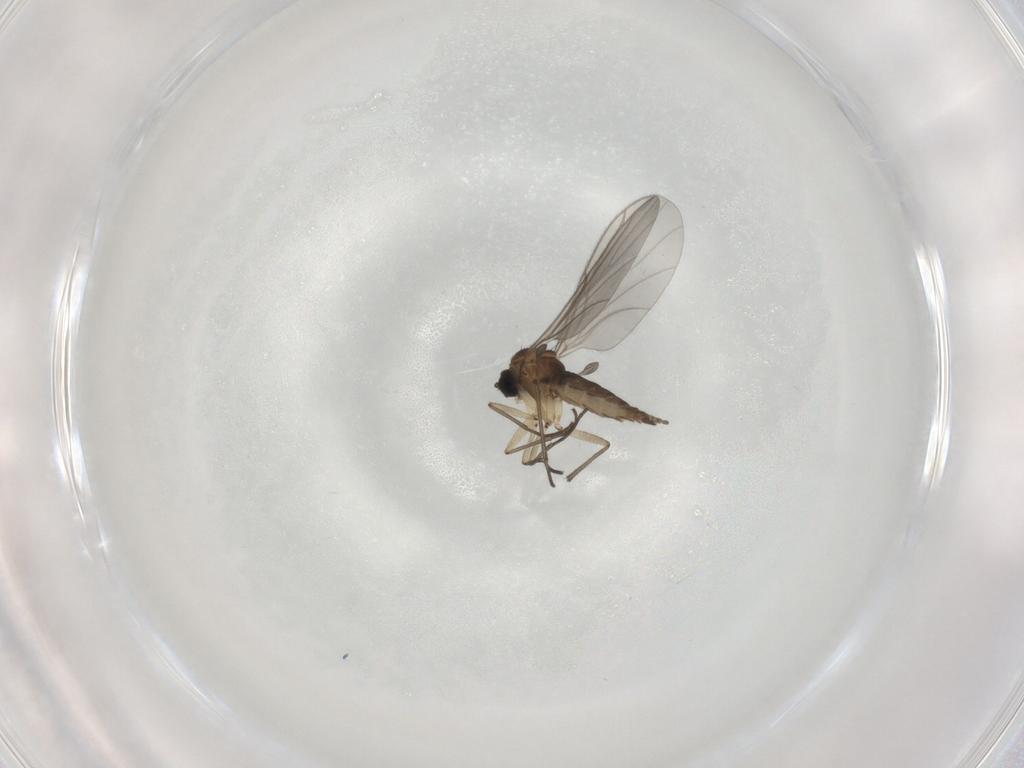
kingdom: Animalia
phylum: Arthropoda
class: Insecta
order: Diptera
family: Sciaridae
